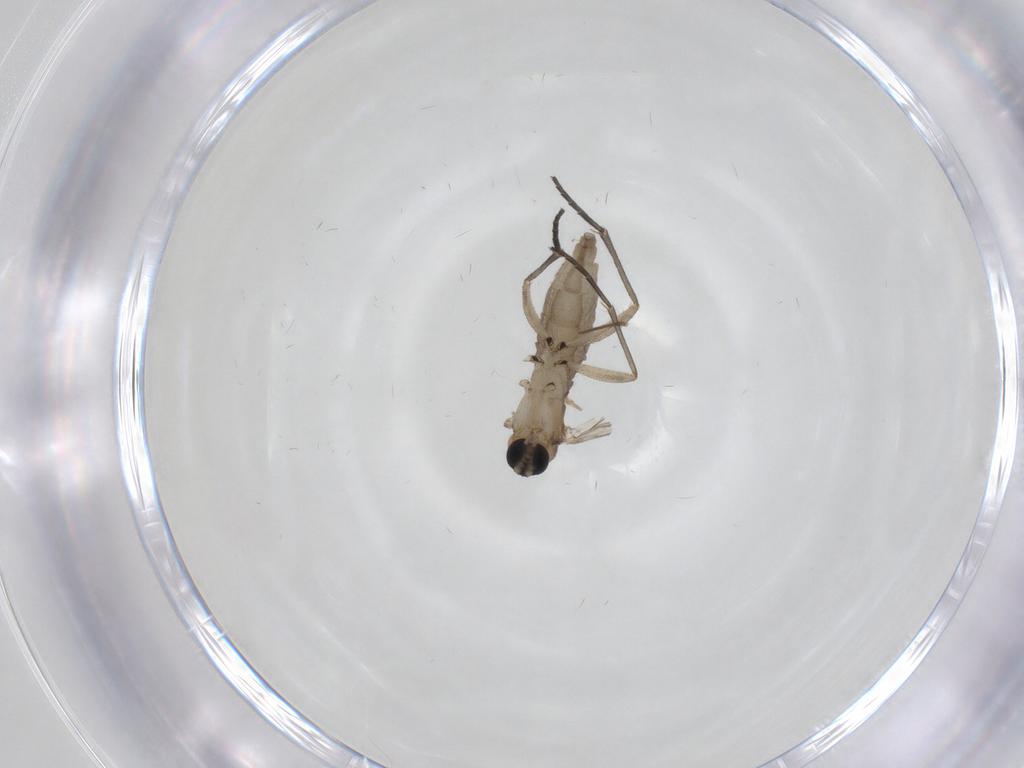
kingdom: Animalia
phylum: Arthropoda
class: Insecta
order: Diptera
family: Sciaridae
